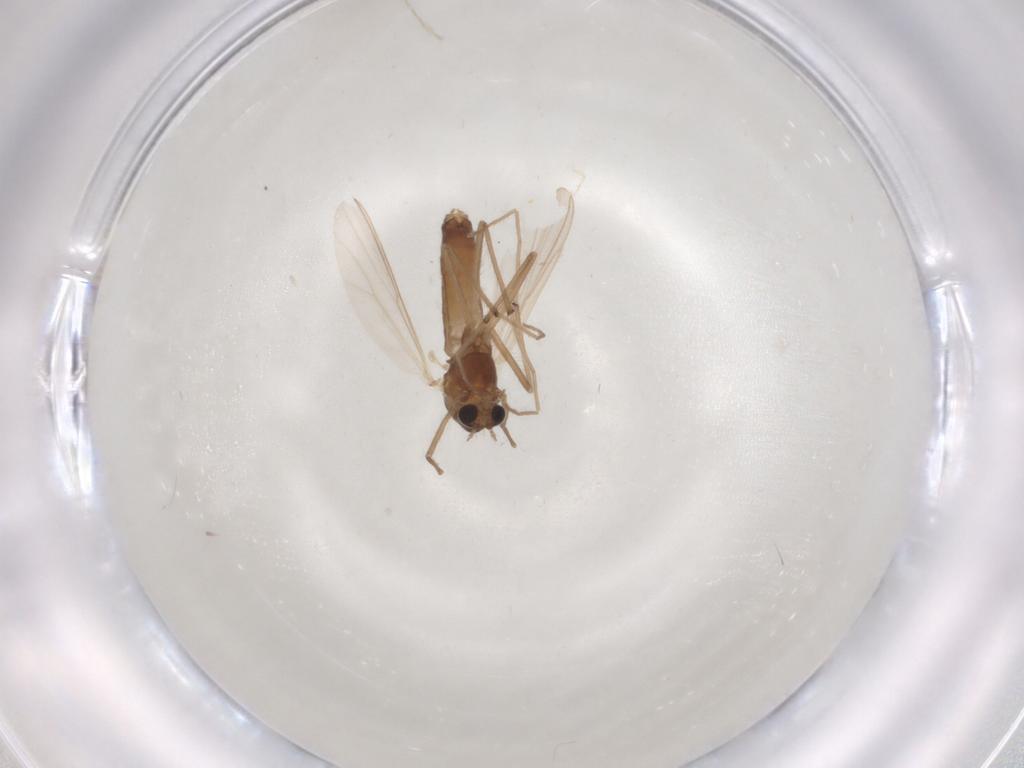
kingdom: Animalia
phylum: Arthropoda
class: Insecta
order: Diptera
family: Chironomidae
